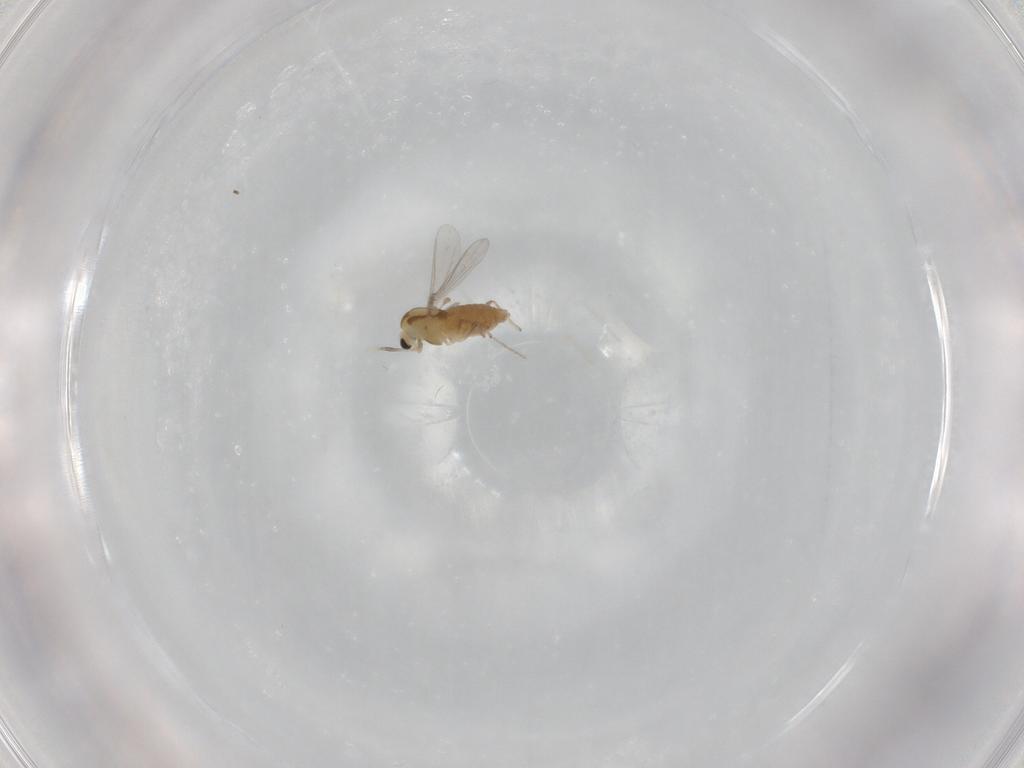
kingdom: Animalia
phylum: Arthropoda
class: Insecta
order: Diptera
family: Chironomidae
